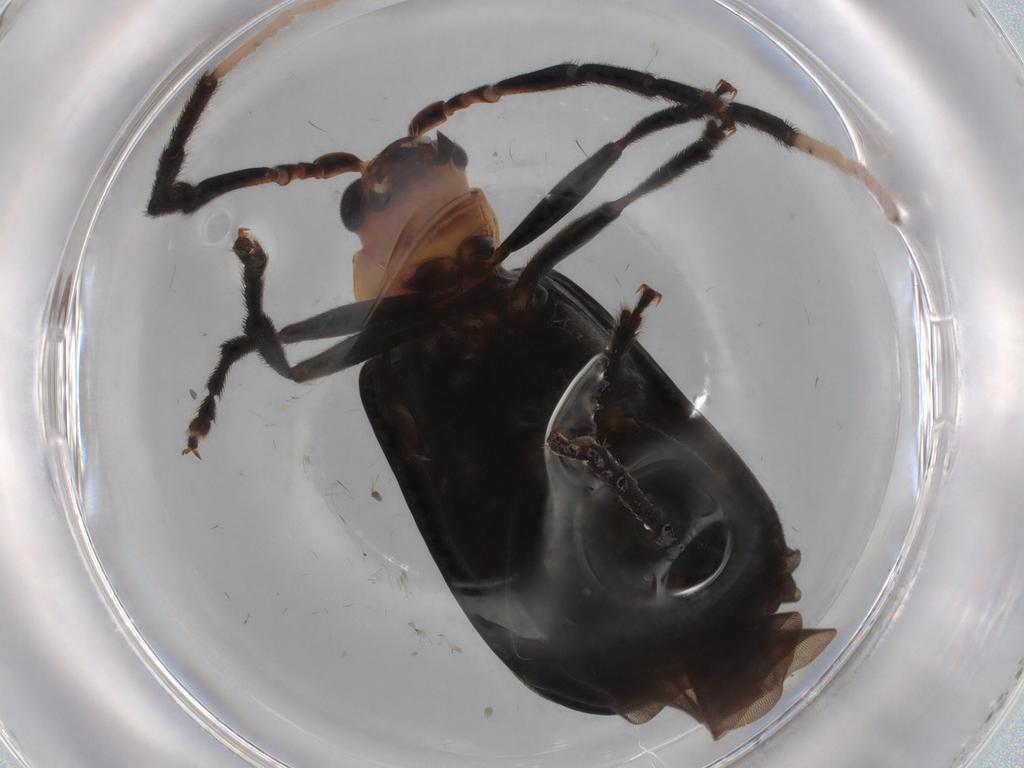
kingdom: Animalia
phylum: Arthropoda
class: Insecta
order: Coleoptera
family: Chrysomelidae
